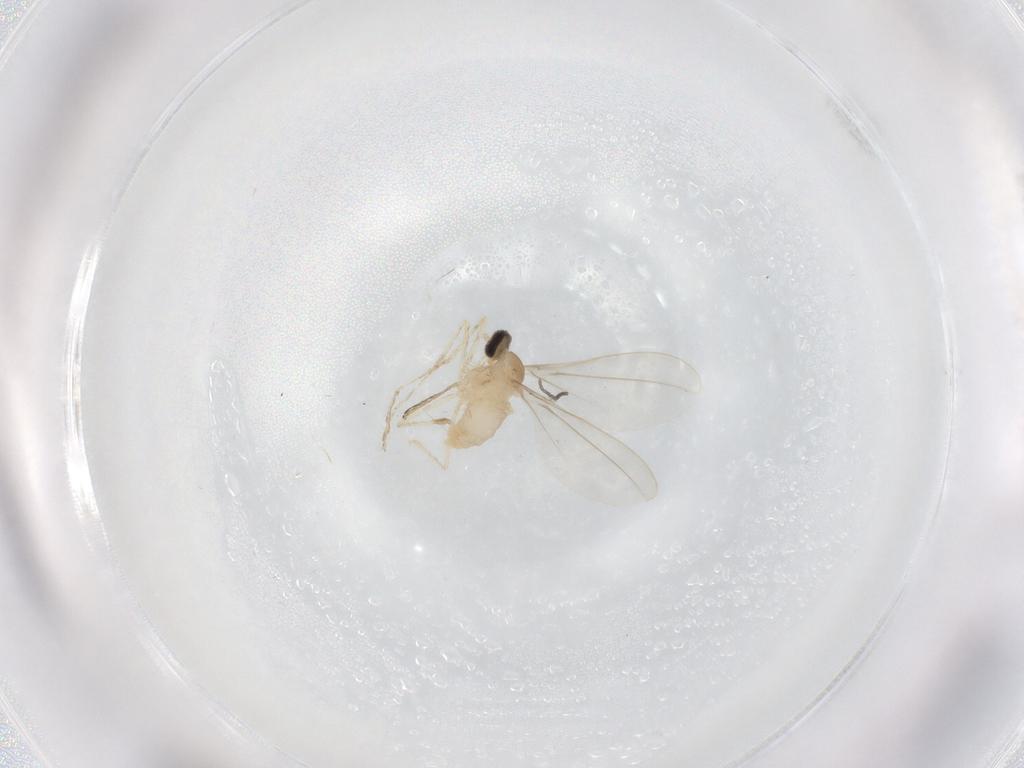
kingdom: Animalia
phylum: Arthropoda
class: Insecta
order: Diptera
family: Cecidomyiidae
